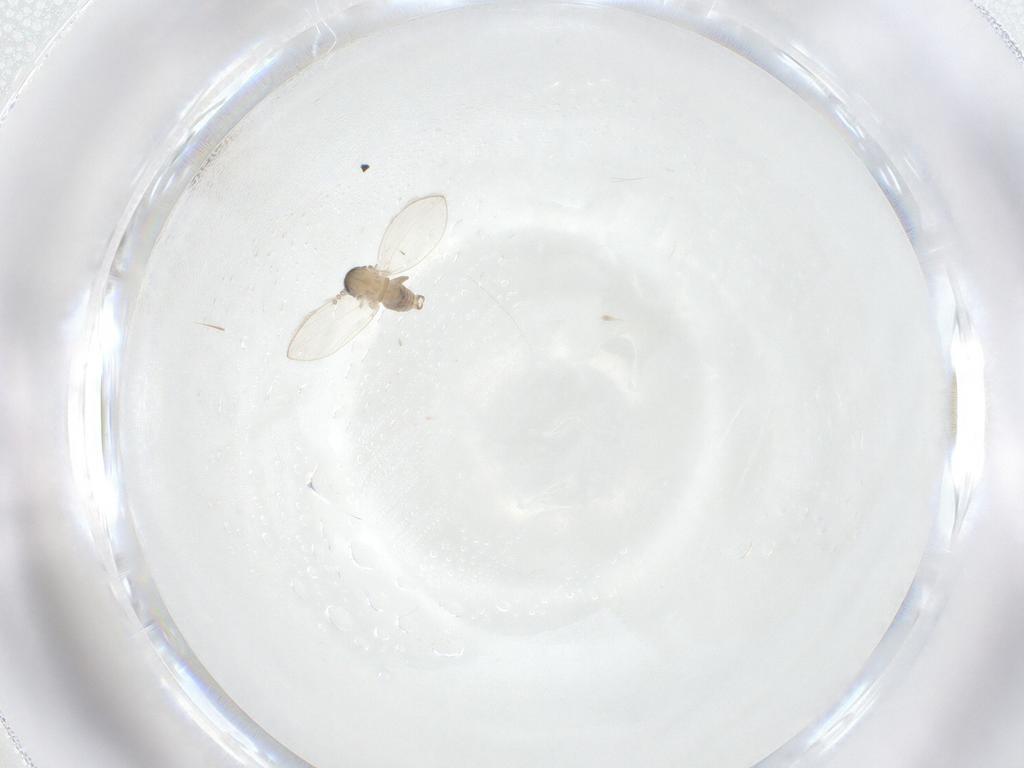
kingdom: Animalia
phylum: Arthropoda
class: Insecta
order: Diptera
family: Psychodidae
